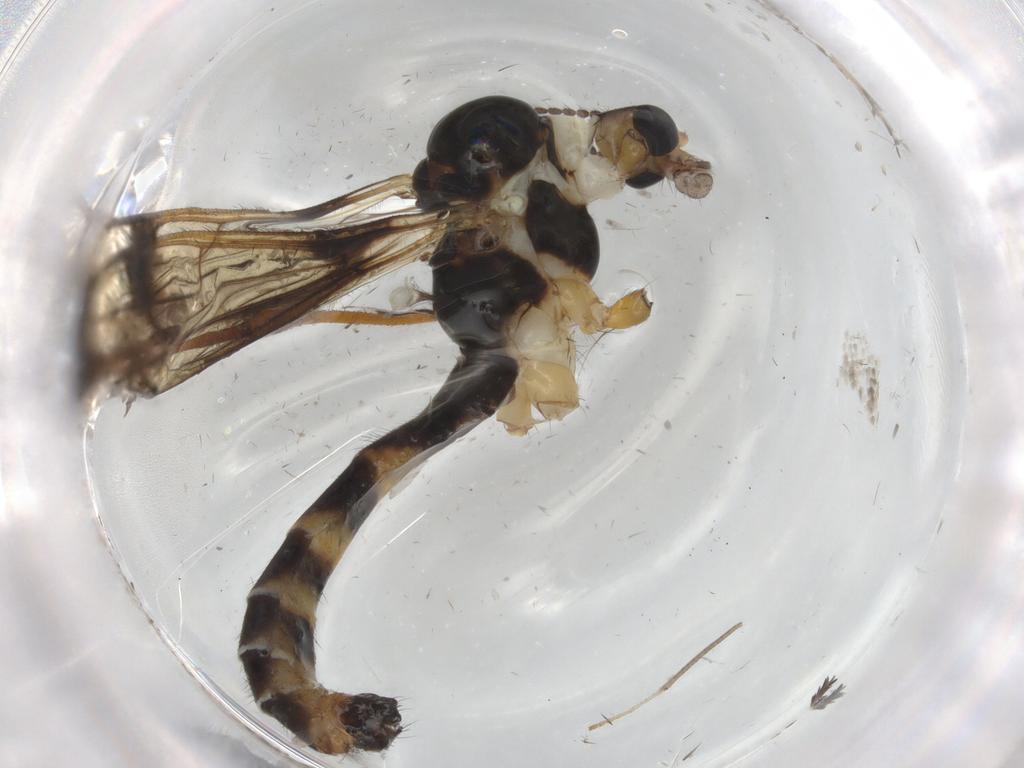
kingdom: Animalia
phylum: Arthropoda
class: Insecta
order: Diptera
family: Limoniidae
